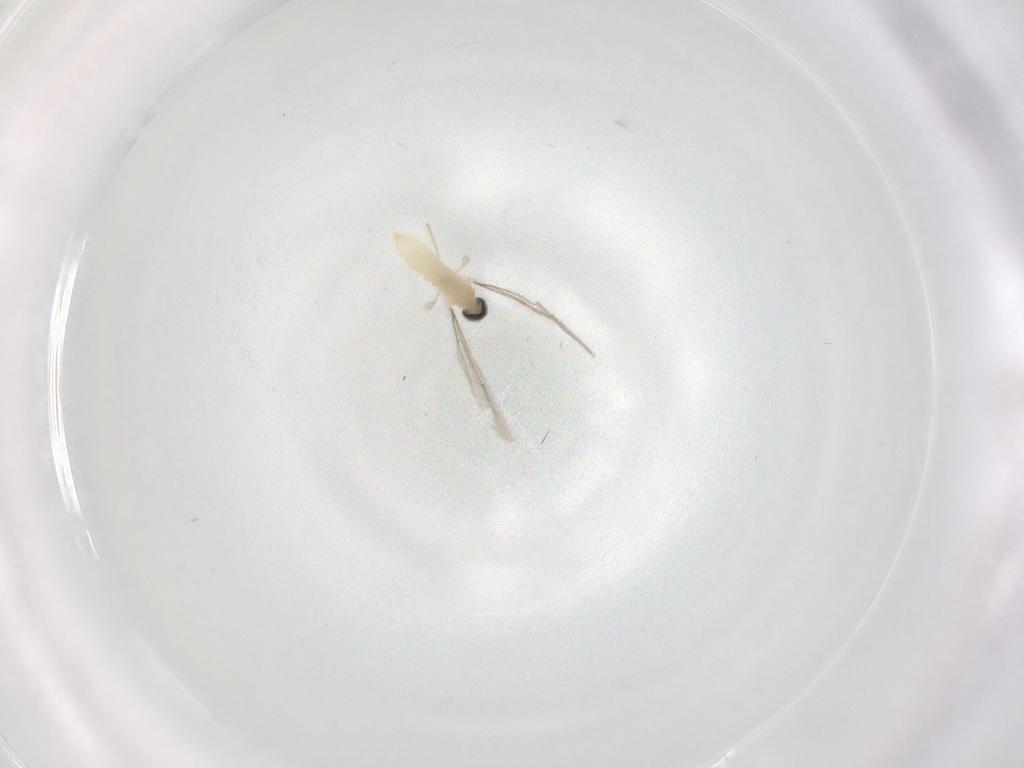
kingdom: Animalia
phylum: Arthropoda
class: Insecta
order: Diptera
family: Cecidomyiidae
